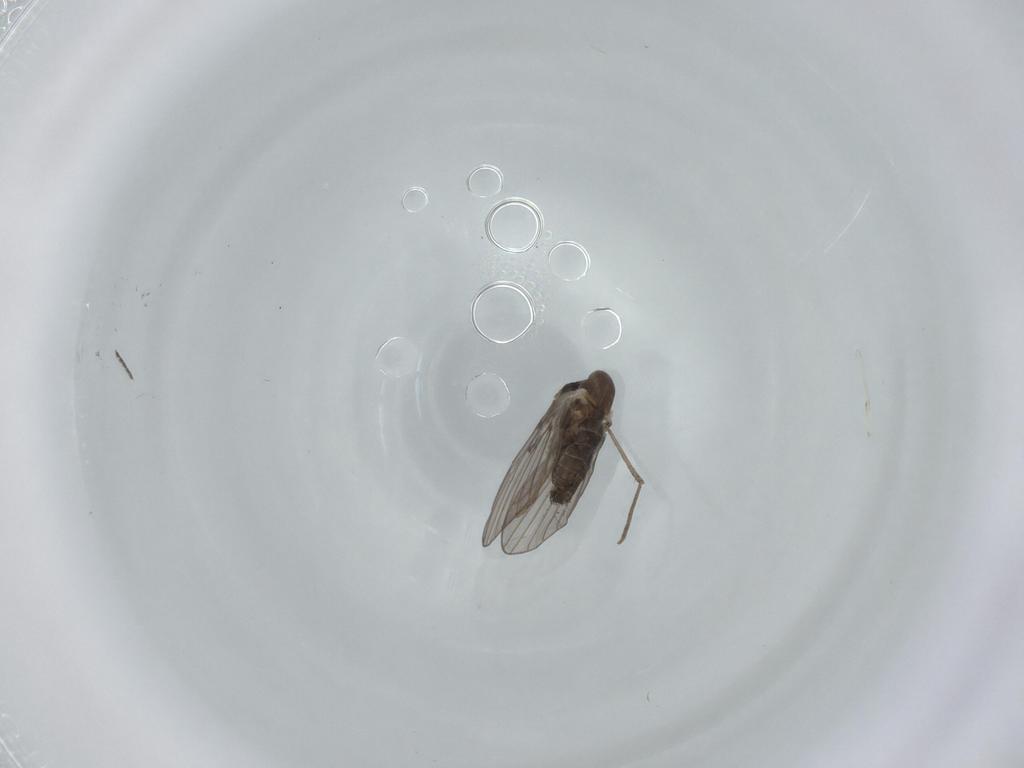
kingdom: Animalia
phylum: Arthropoda
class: Insecta
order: Diptera
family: Psychodidae
